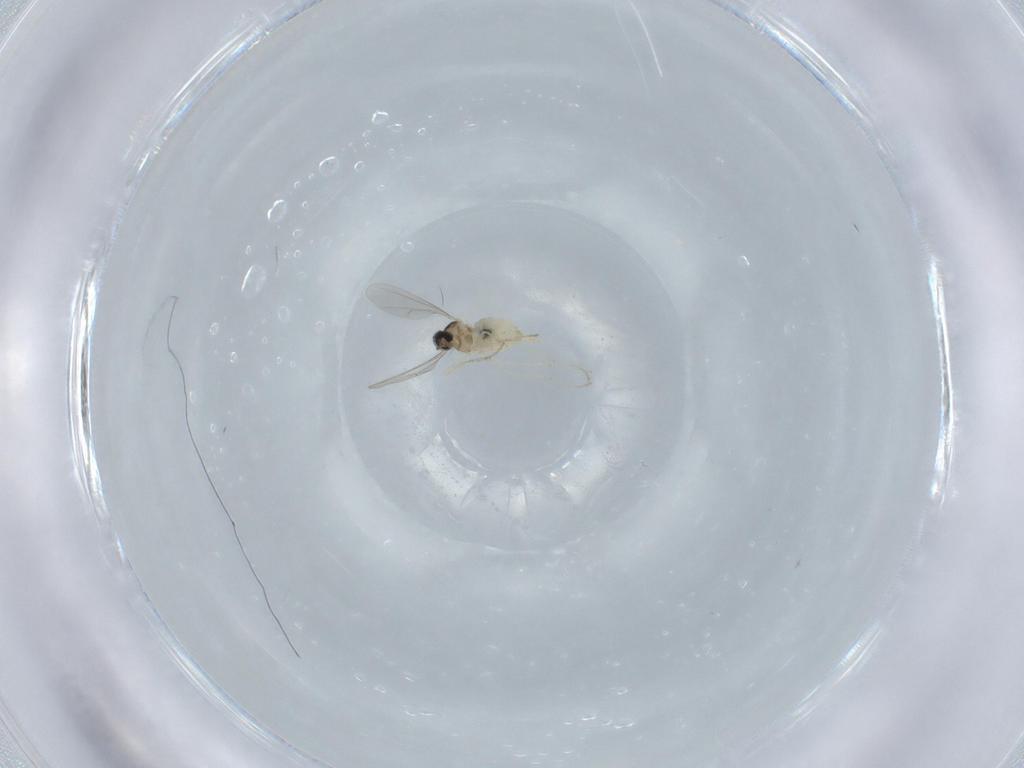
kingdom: Animalia
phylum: Arthropoda
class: Insecta
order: Diptera
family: Cecidomyiidae
